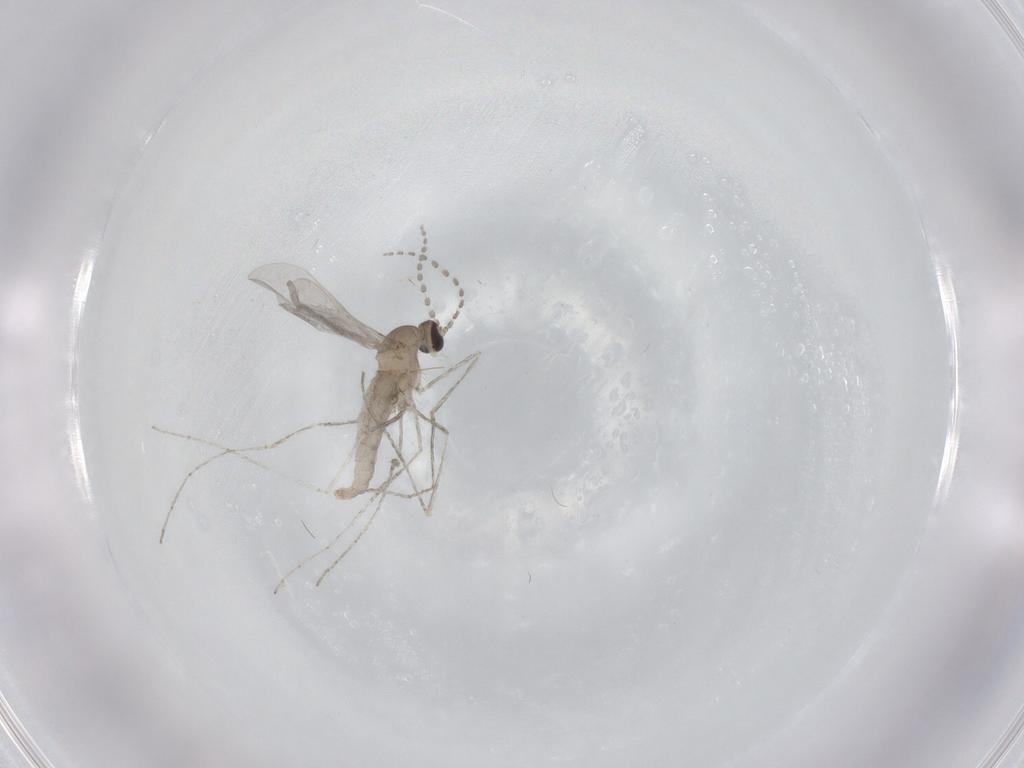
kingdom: Animalia
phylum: Arthropoda
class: Insecta
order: Diptera
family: Cecidomyiidae
